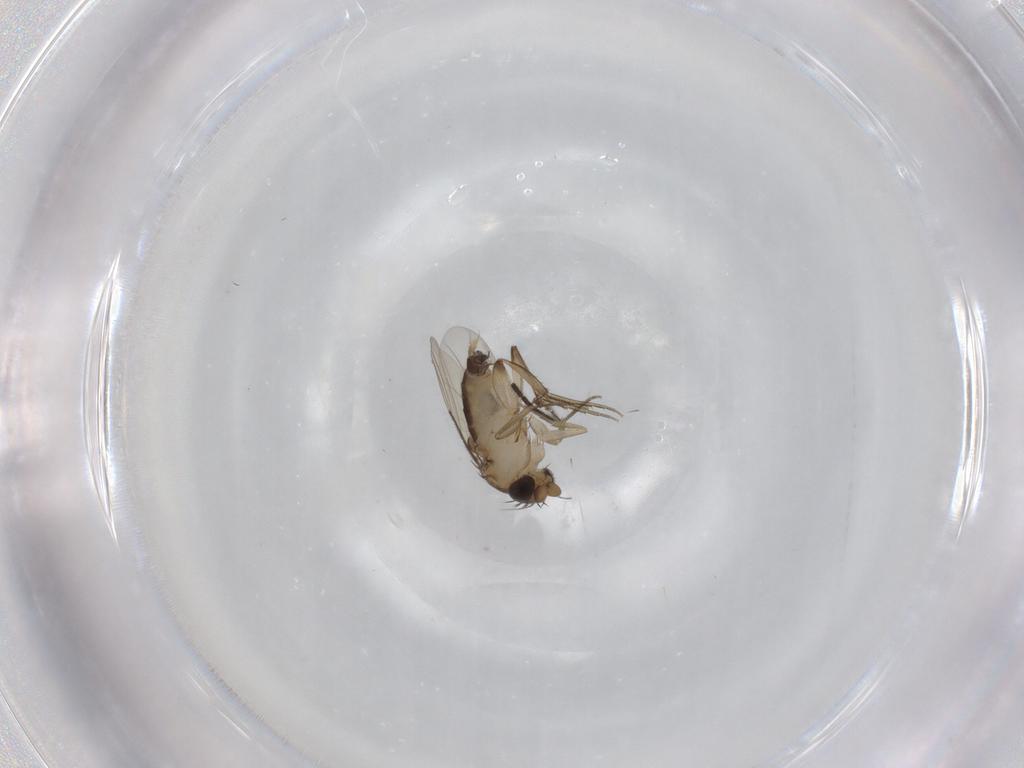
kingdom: Animalia
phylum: Arthropoda
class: Insecta
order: Diptera
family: Phoridae
